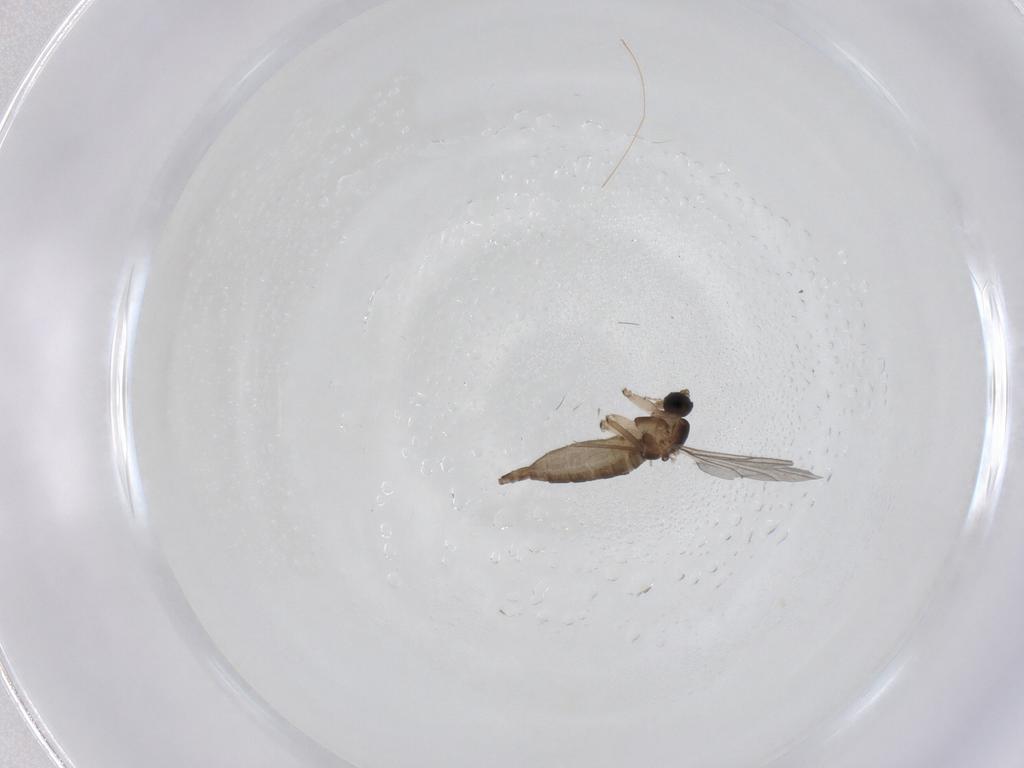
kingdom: Animalia
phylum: Arthropoda
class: Insecta
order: Diptera
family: Sciaridae
